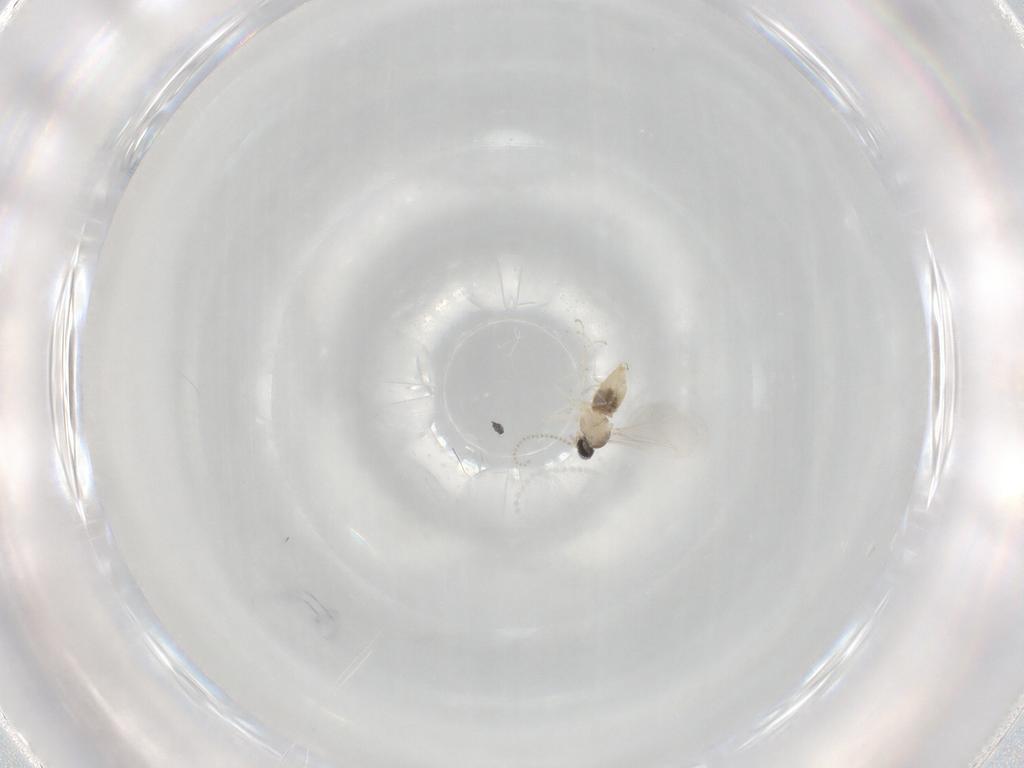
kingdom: Animalia
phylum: Arthropoda
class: Insecta
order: Diptera
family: Cecidomyiidae
